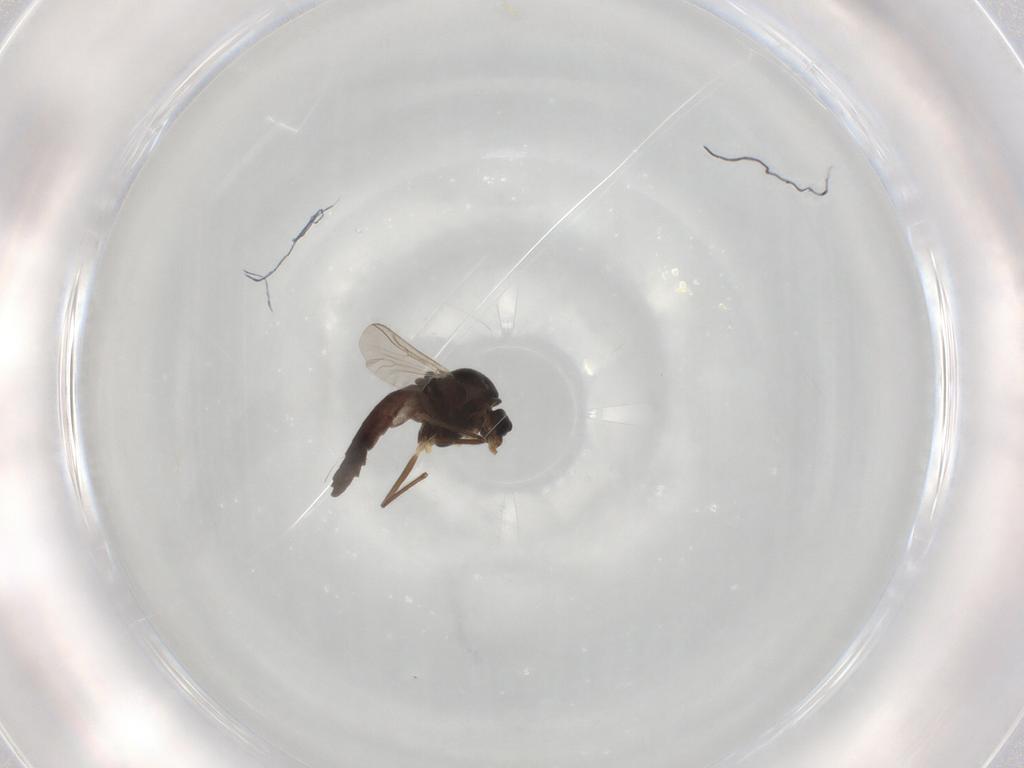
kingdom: Animalia
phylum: Arthropoda
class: Insecta
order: Diptera
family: Chironomidae
